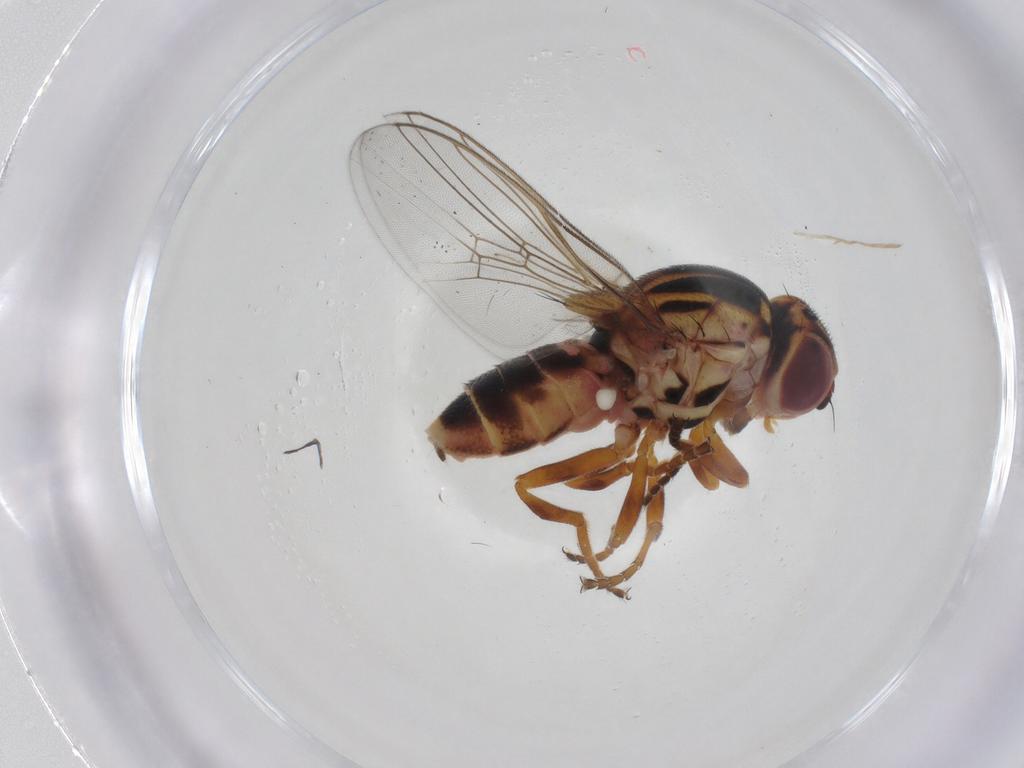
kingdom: Animalia
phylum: Arthropoda
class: Insecta
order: Diptera
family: Chloropidae
